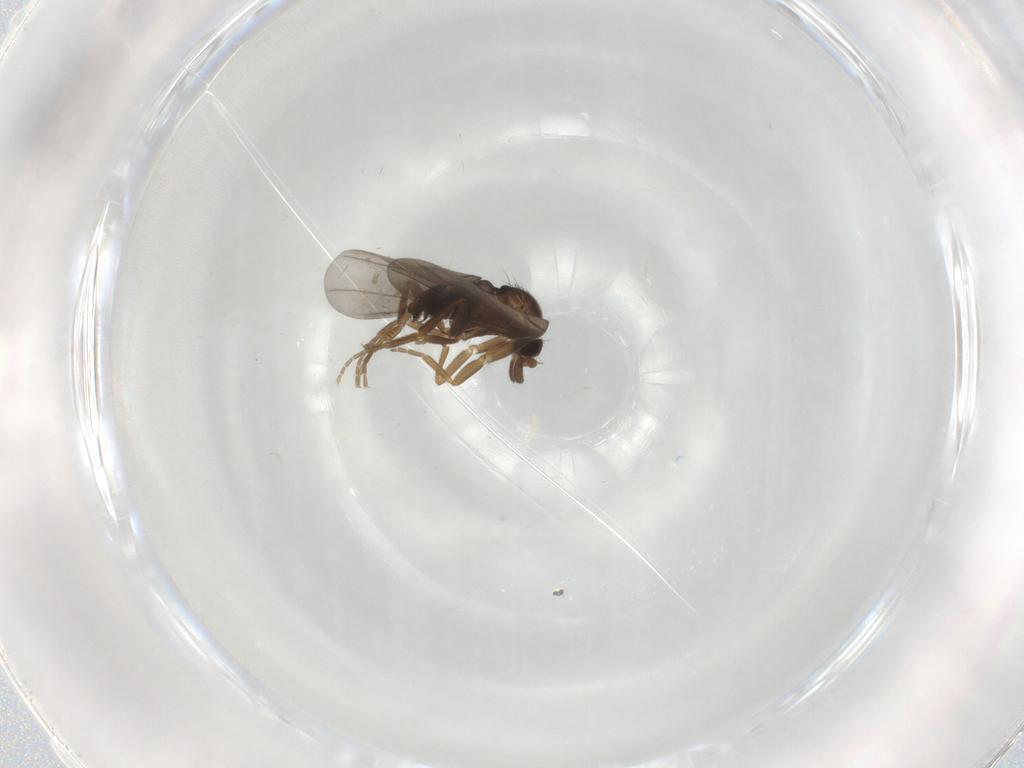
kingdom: Animalia
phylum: Arthropoda
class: Insecta
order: Diptera
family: Phoridae
